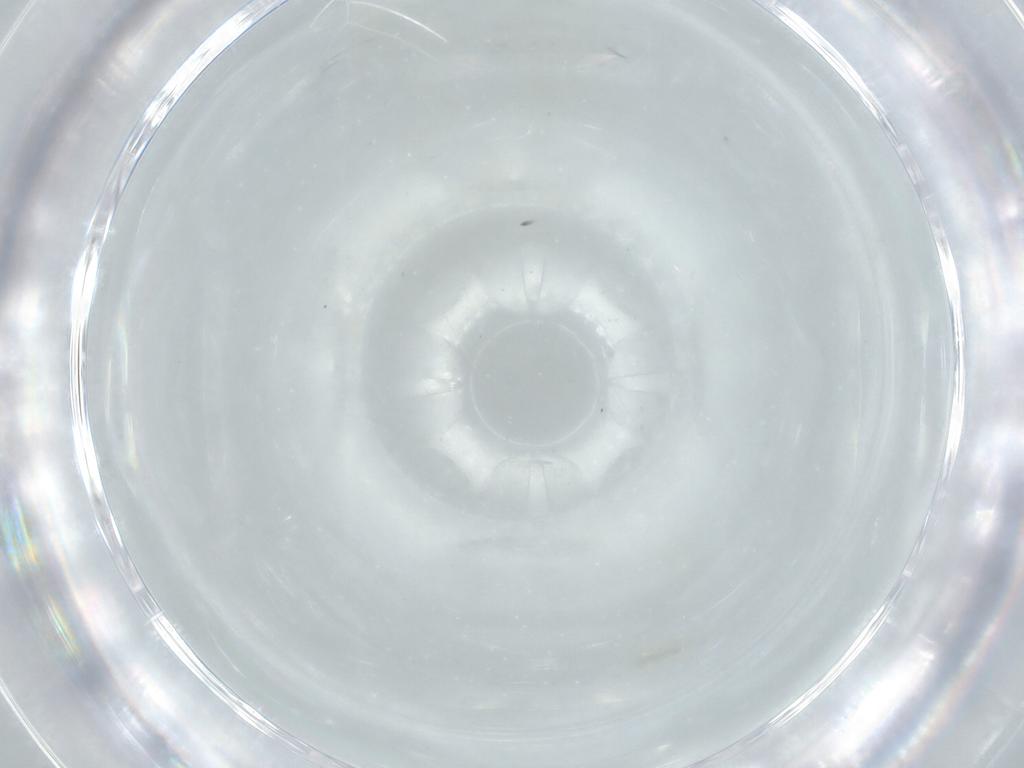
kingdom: Animalia
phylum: Arthropoda
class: Insecta
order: Diptera
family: Cecidomyiidae
